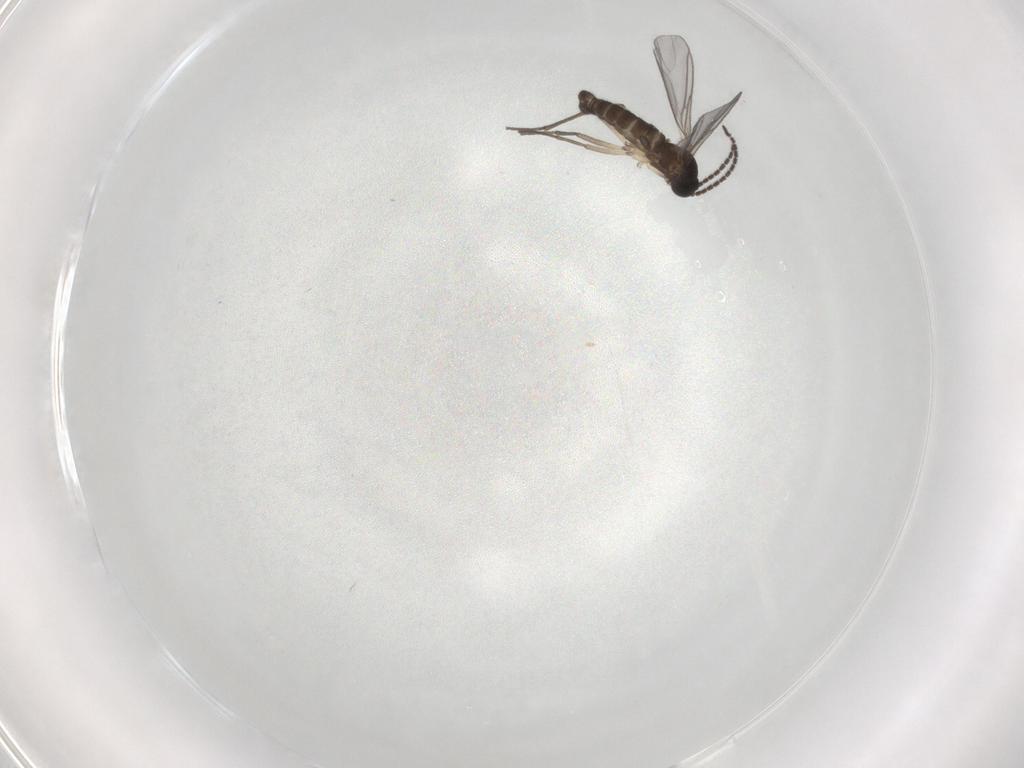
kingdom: Animalia
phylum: Arthropoda
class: Insecta
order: Diptera
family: Sciaridae
